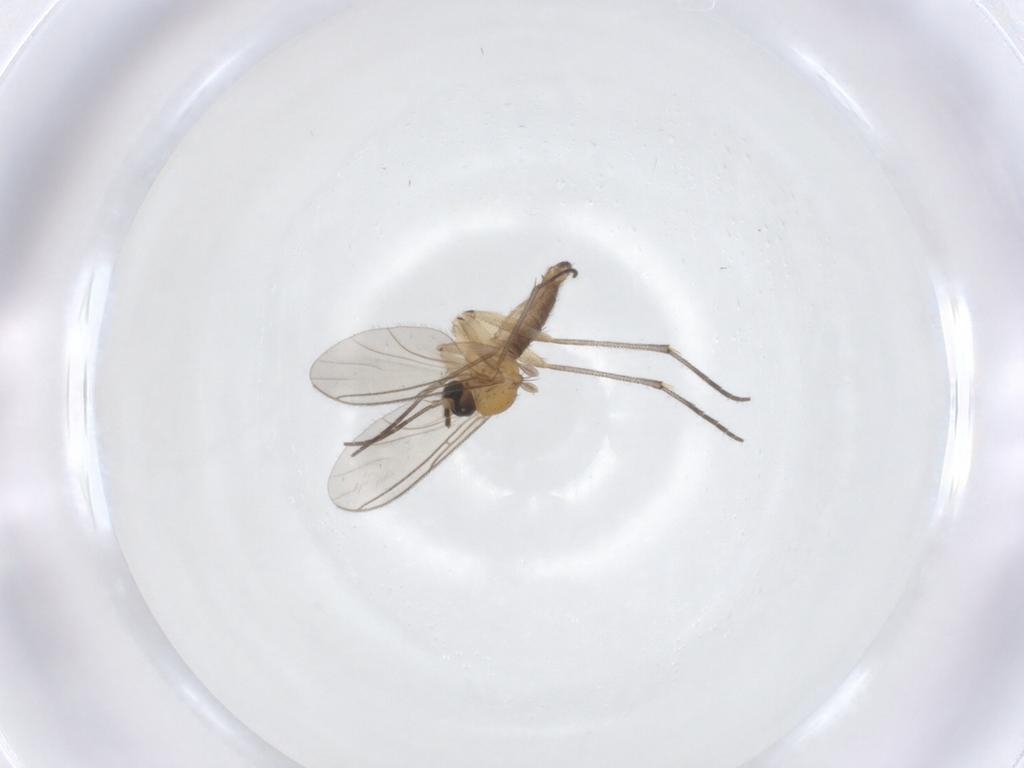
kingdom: Animalia
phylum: Arthropoda
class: Insecta
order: Diptera
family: Sciaridae
